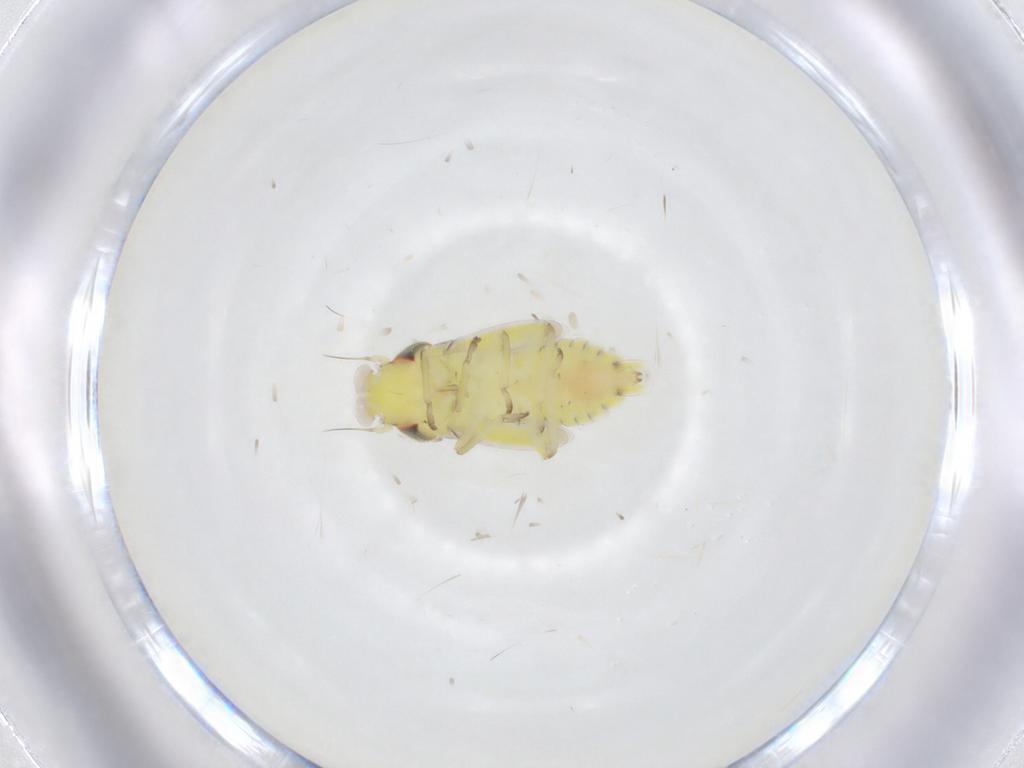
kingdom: Animalia
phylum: Arthropoda
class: Insecta
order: Hemiptera
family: Cicadellidae
